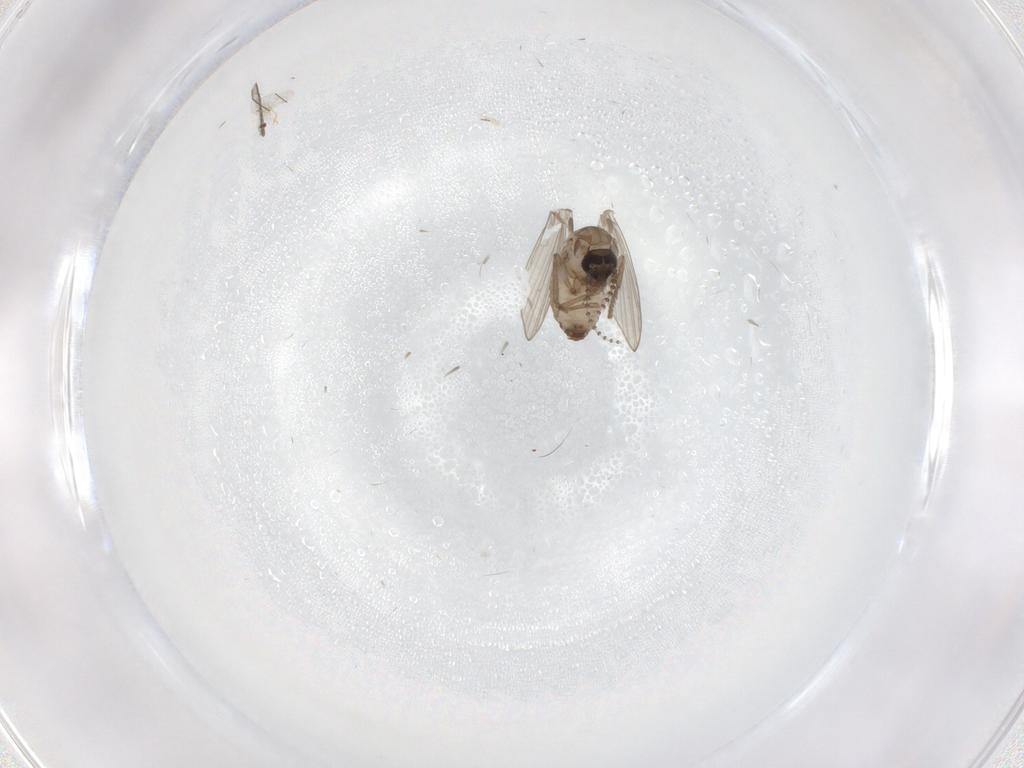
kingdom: Animalia
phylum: Arthropoda
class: Insecta
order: Diptera
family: Psychodidae
